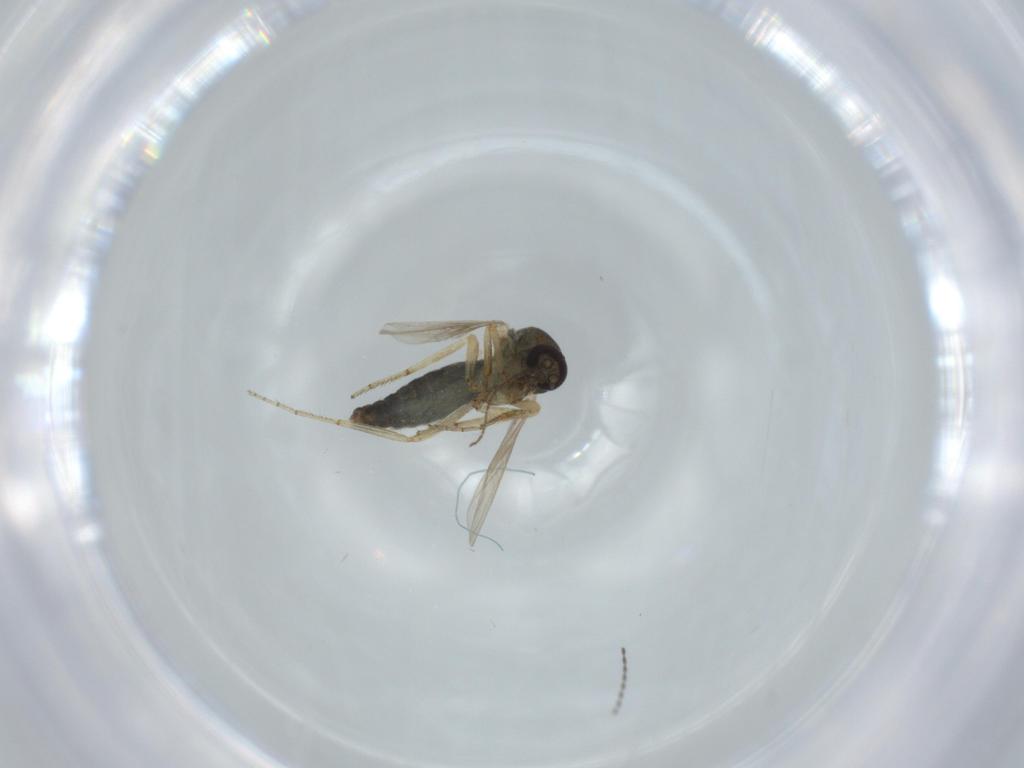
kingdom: Animalia
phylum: Arthropoda
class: Insecta
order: Diptera
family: Ceratopogonidae
